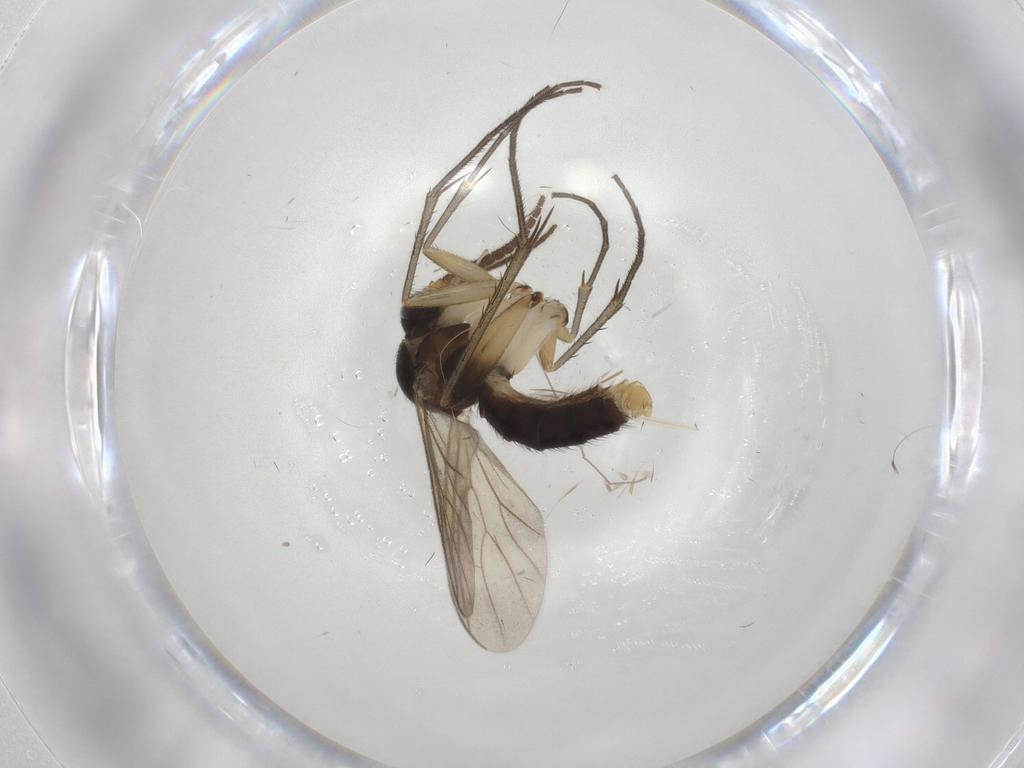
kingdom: Animalia
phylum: Arthropoda
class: Insecta
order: Diptera
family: Mycetophilidae
